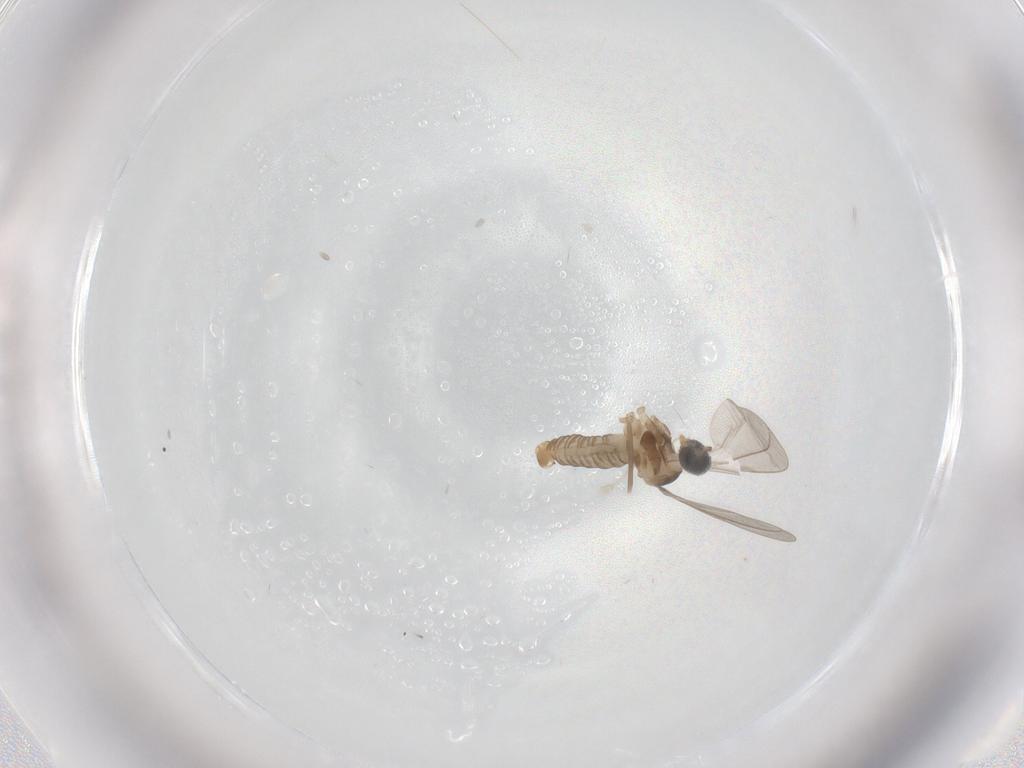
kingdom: Animalia
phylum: Arthropoda
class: Insecta
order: Diptera
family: Cecidomyiidae
